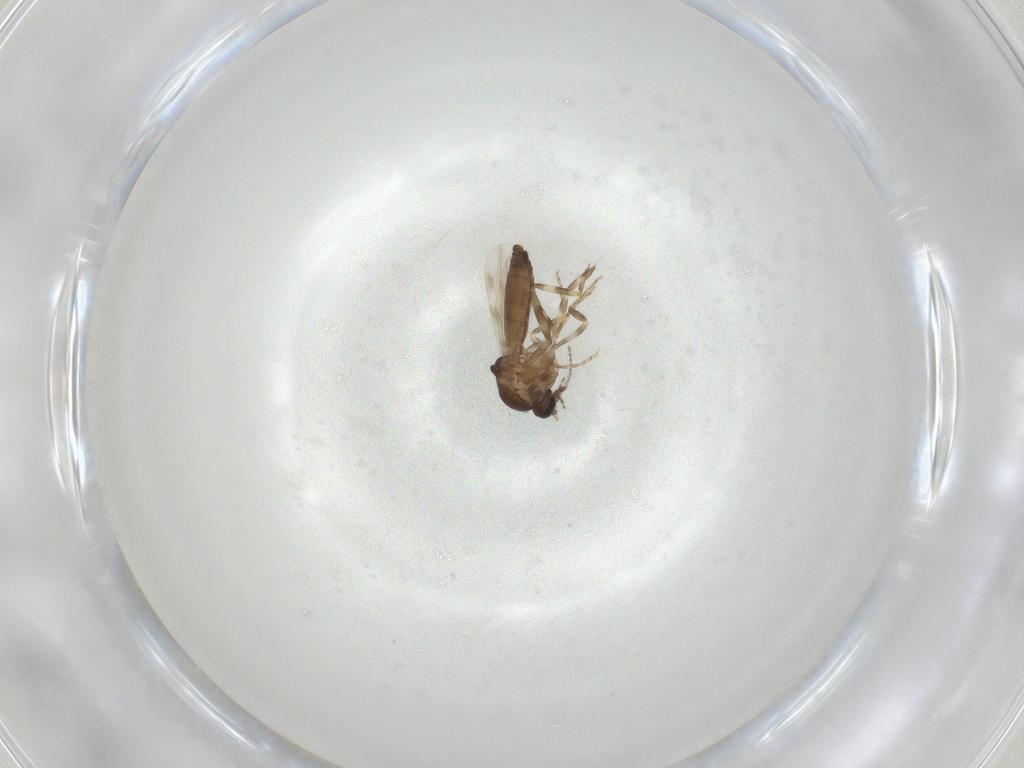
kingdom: Animalia
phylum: Arthropoda
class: Insecta
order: Diptera
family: Ceratopogonidae
